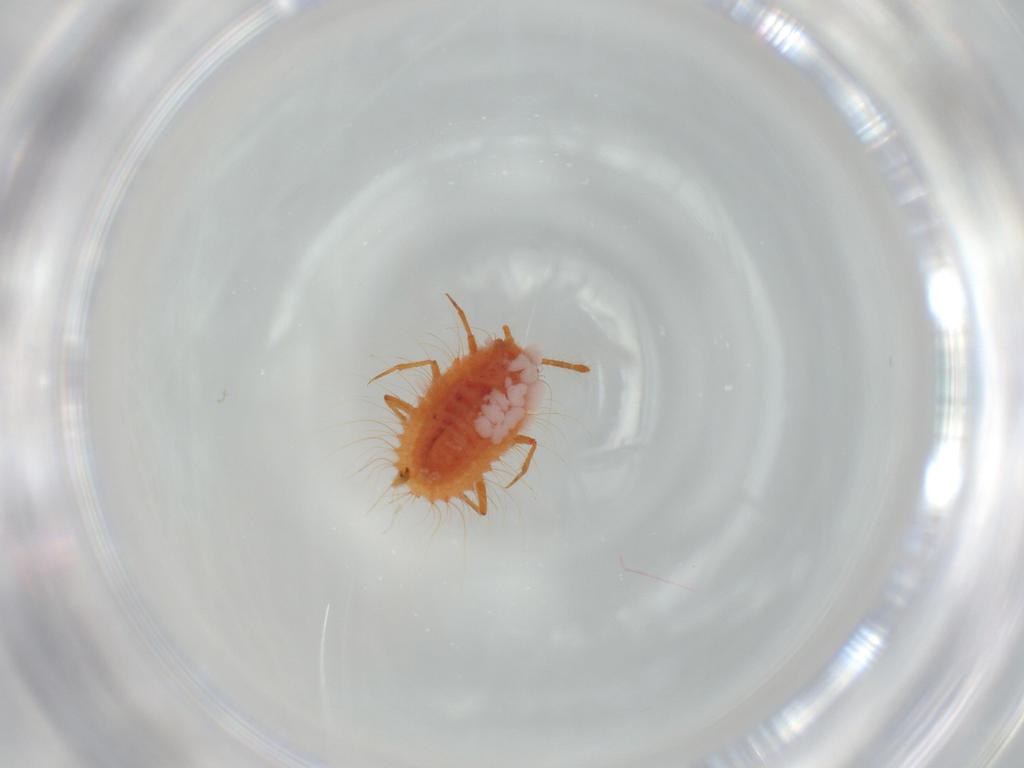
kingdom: Animalia
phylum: Arthropoda
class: Insecta
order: Hemiptera
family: Coccoidea_incertae_sedis
